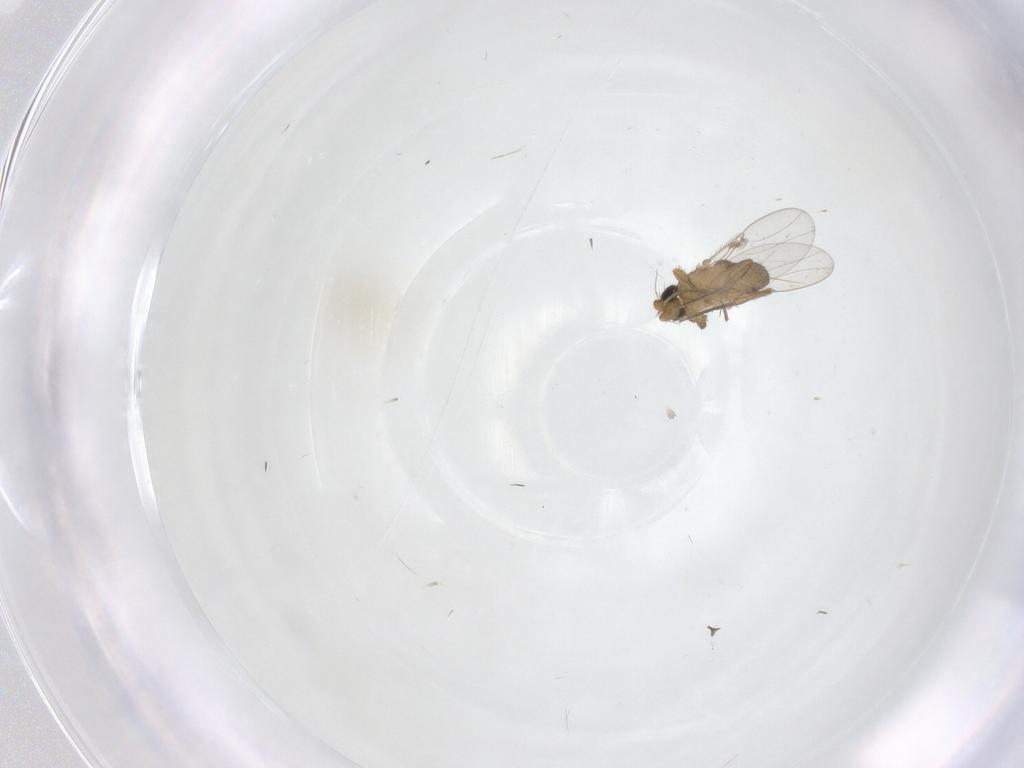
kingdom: Animalia
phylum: Arthropoda
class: Insecta
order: Diptera
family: Phoridae
